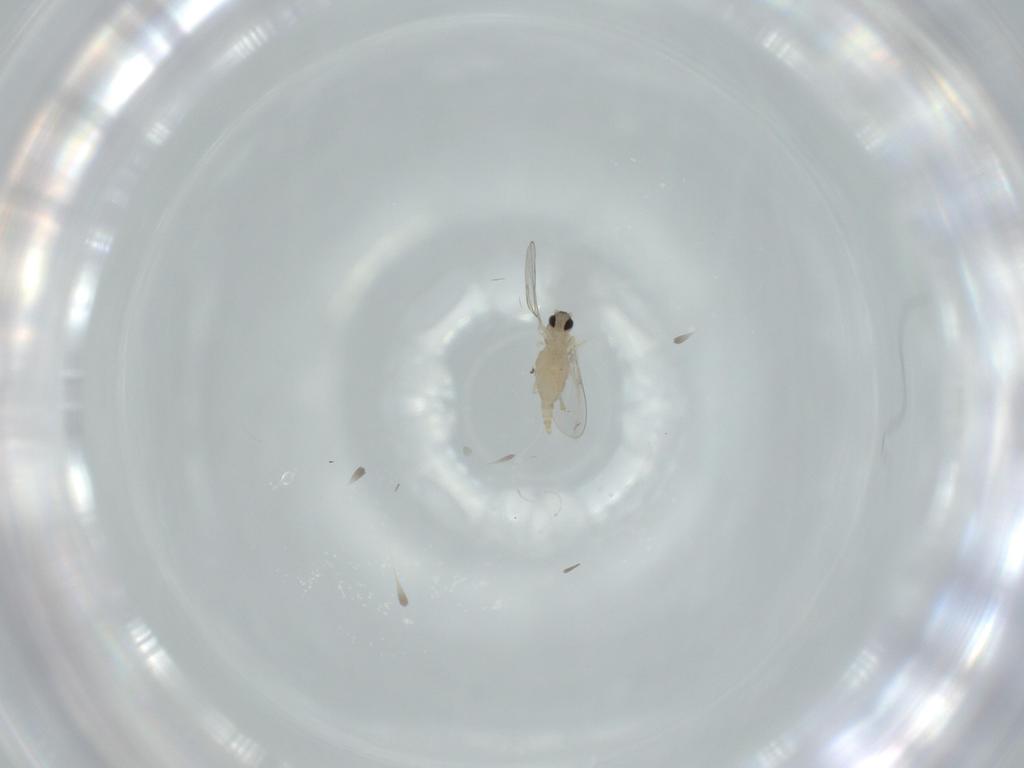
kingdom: Animalia
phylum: Arthropoda
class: Insecta
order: Diptera
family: Cecidomyiidae
